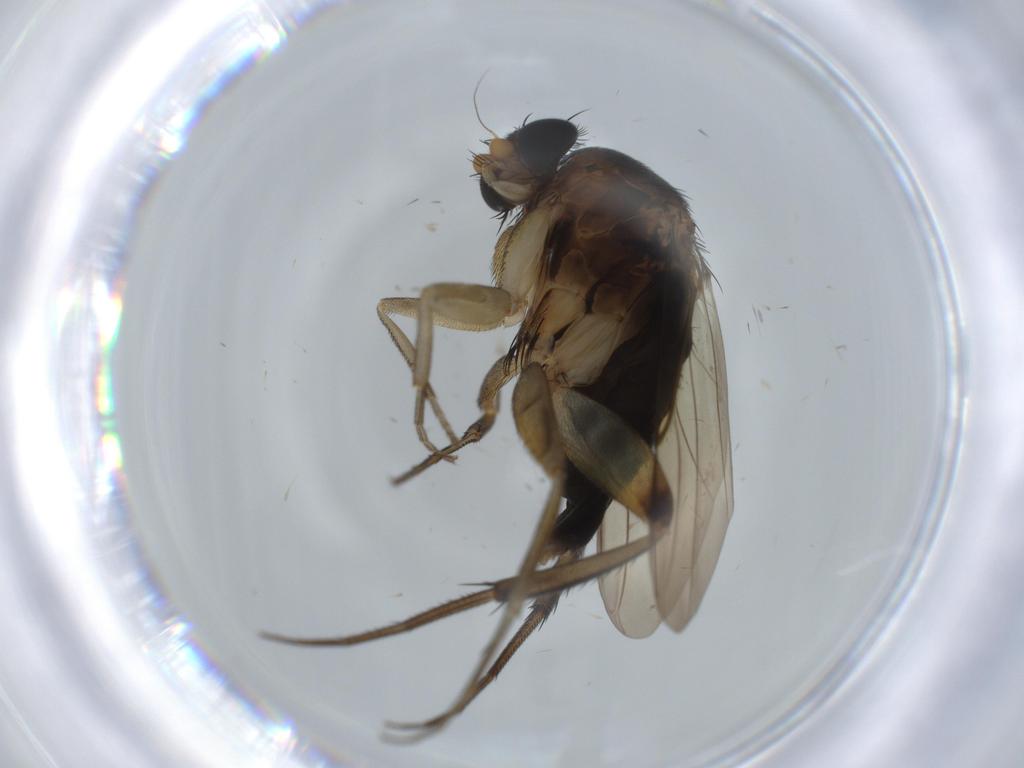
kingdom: Animalia
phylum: Arthropoda
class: Insecta
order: Diptera
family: Phoridae
